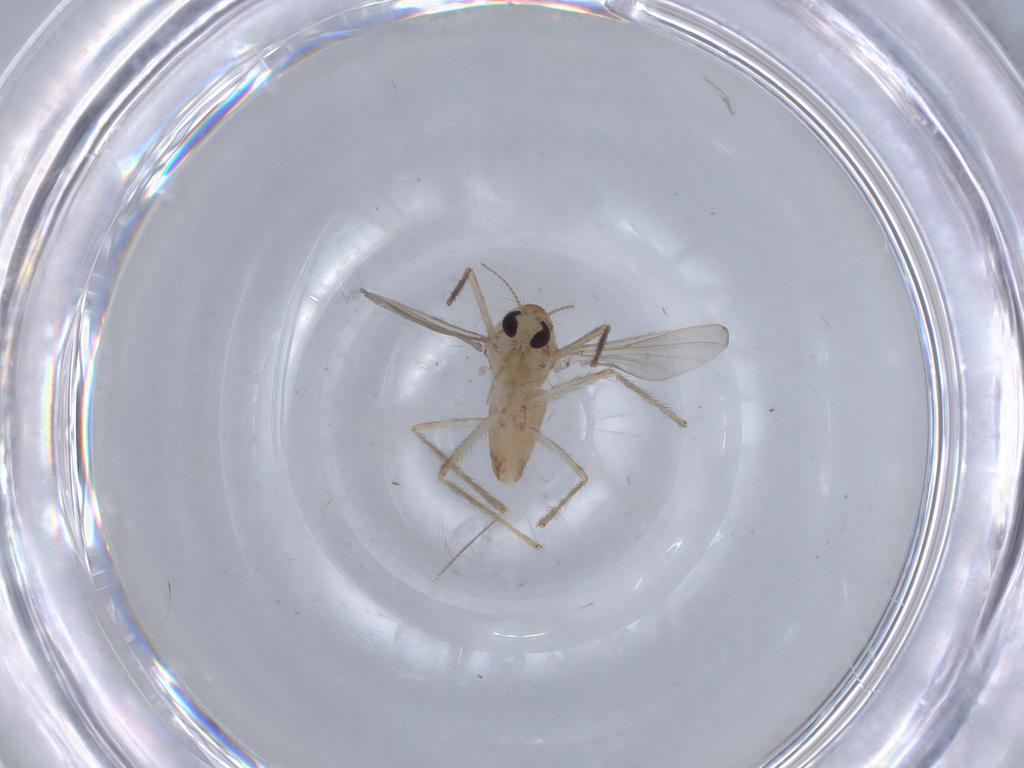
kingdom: Animalia
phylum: Arthropoda
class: Insecta
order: Diptera
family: Chironomidae
